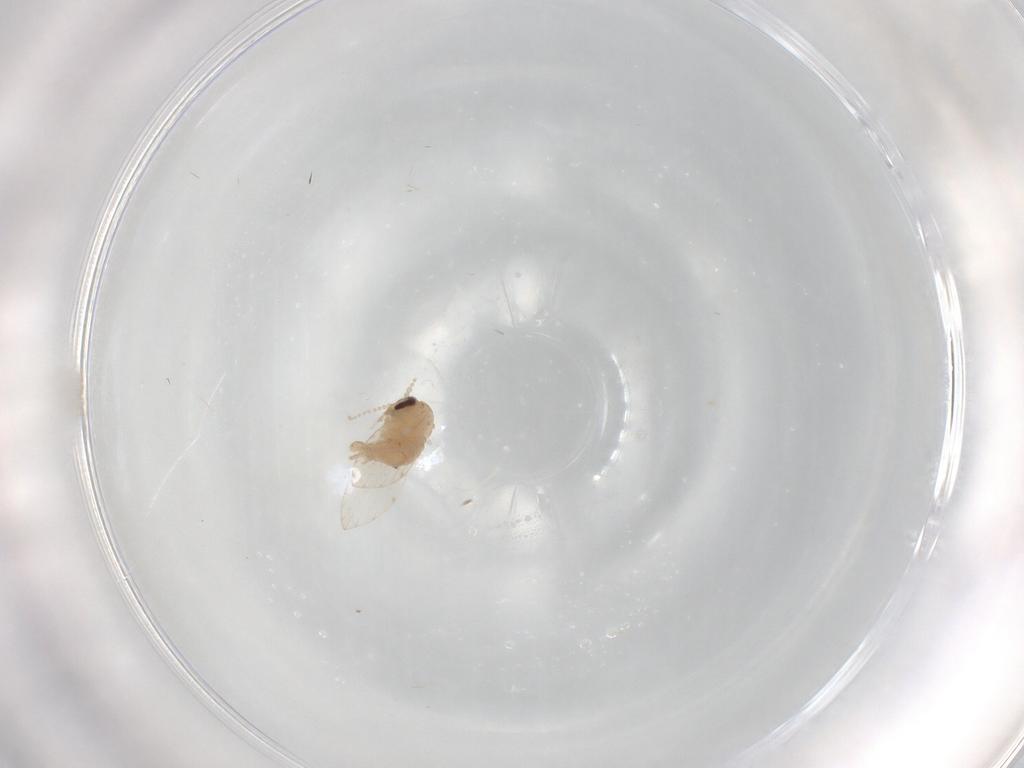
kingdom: Animalia
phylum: Arthropoda
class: Insecta
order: Diptera
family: Psychodidae
